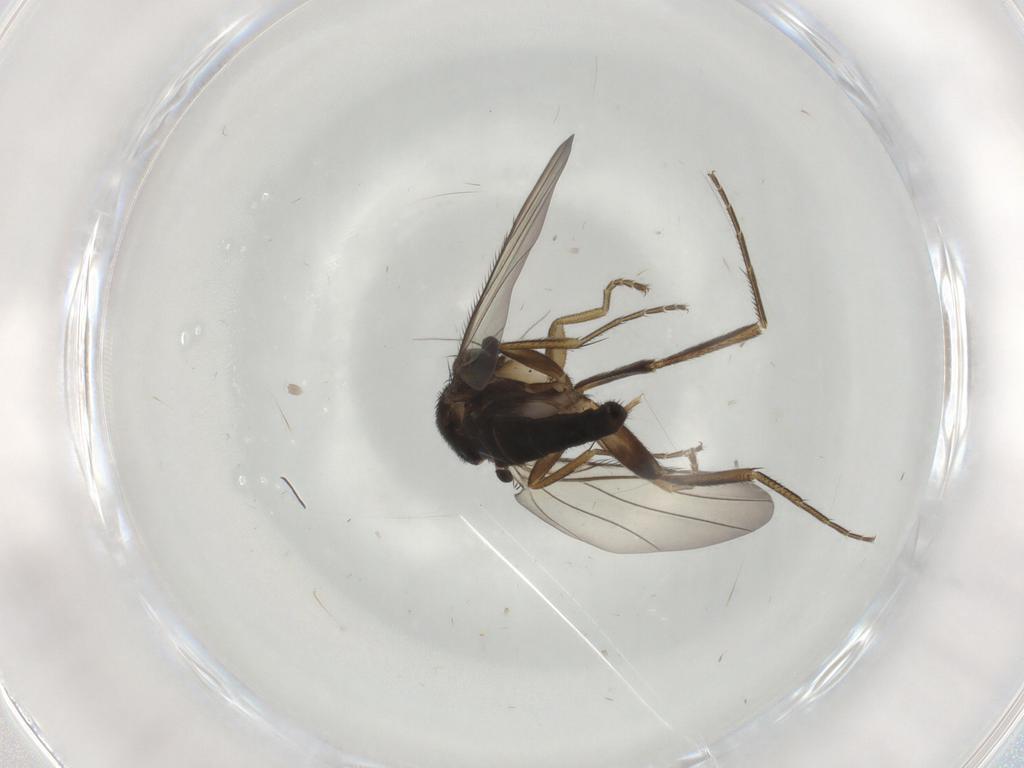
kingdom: Animalia
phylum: Arthropoda
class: Insecta
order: Diptera
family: Phoridae
